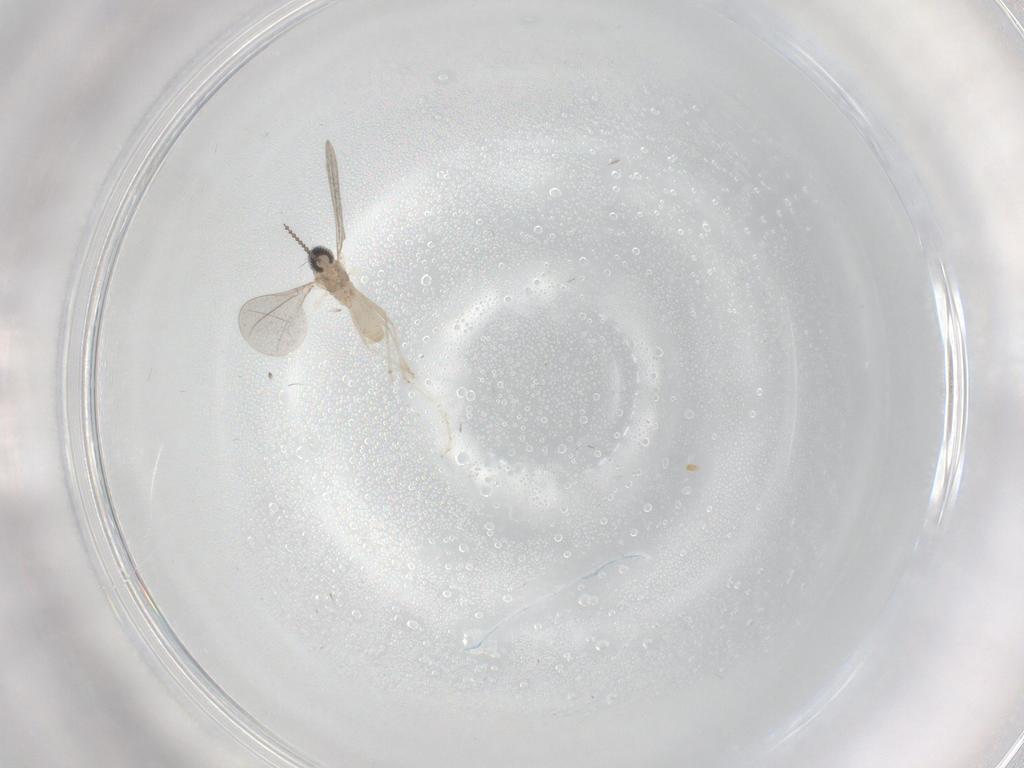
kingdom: Animalia
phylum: Arthropoda
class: Insecta
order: Diptera
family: Cecidomyiidae
